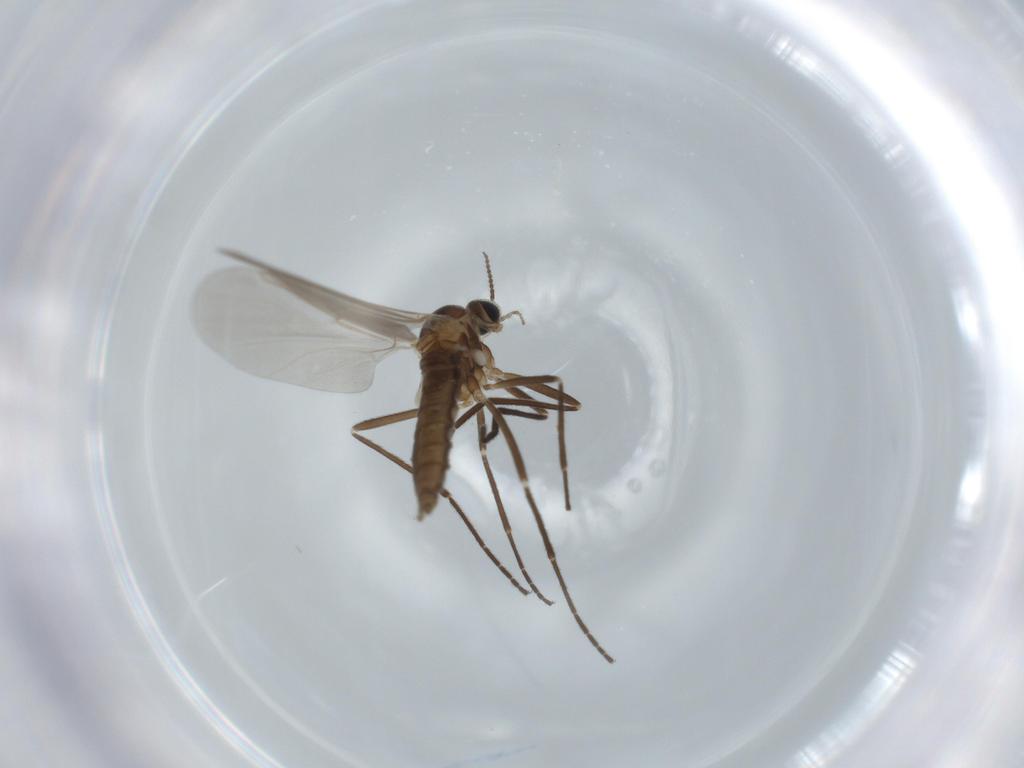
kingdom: Animalia
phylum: Arthropoda
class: Insecta
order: Diptera
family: Cecidomyiidae
